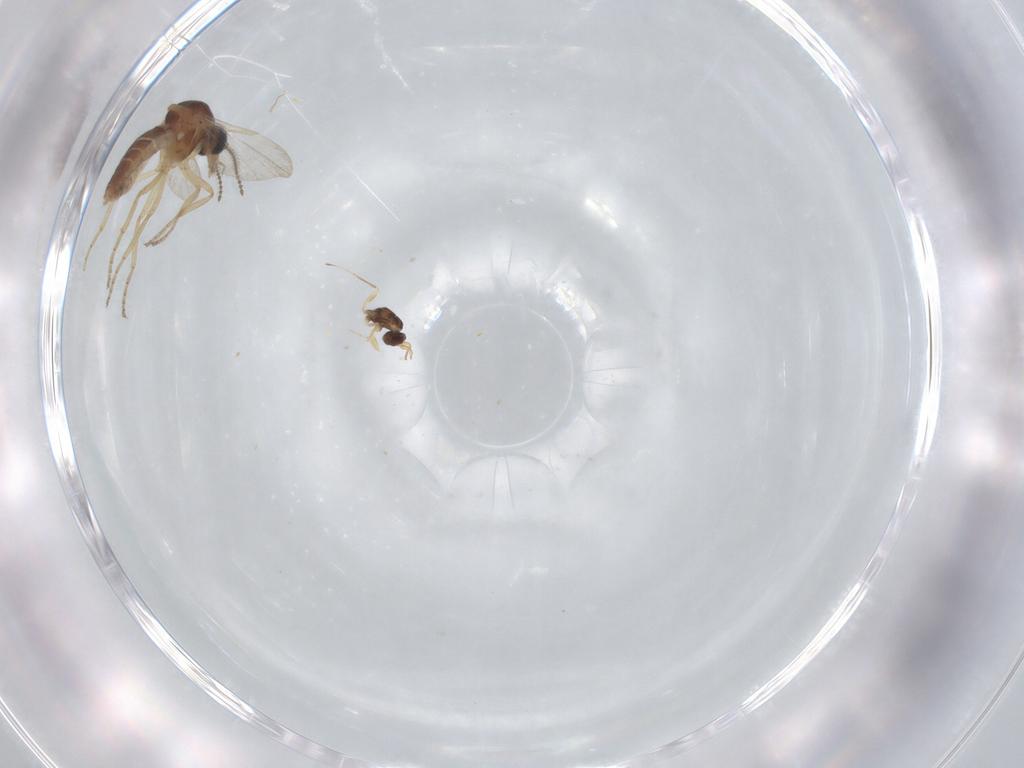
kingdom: Animalia
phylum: Arthropoda
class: Insecta
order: Diptera
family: Ceratopogonidae
